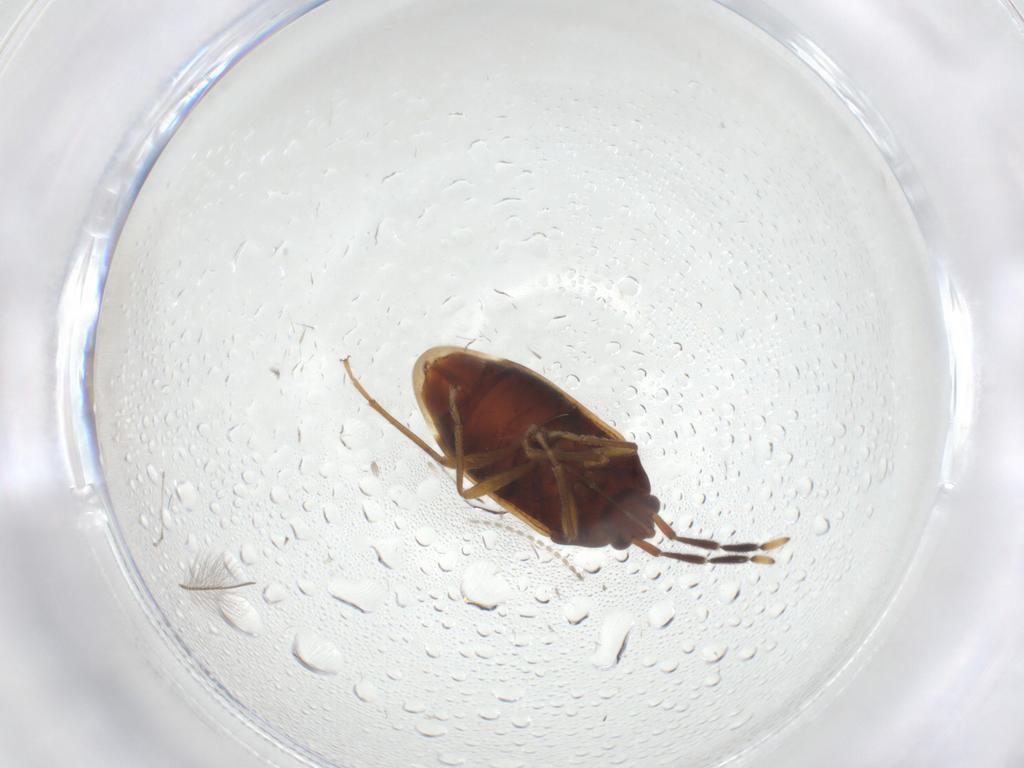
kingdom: Animalia
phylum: Arthropoda
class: Insecta
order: Hemiptera
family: Rhyparochromidae
